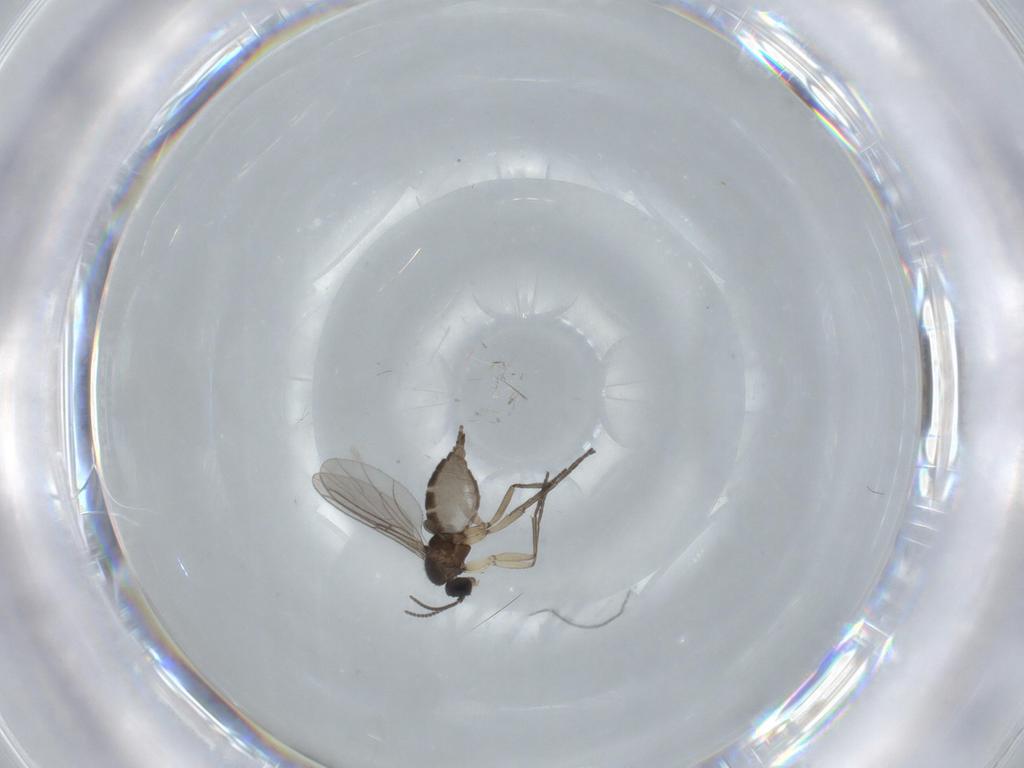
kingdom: Animalia
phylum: Arthropoda
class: Insecta
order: Diptera
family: Sciaridae
